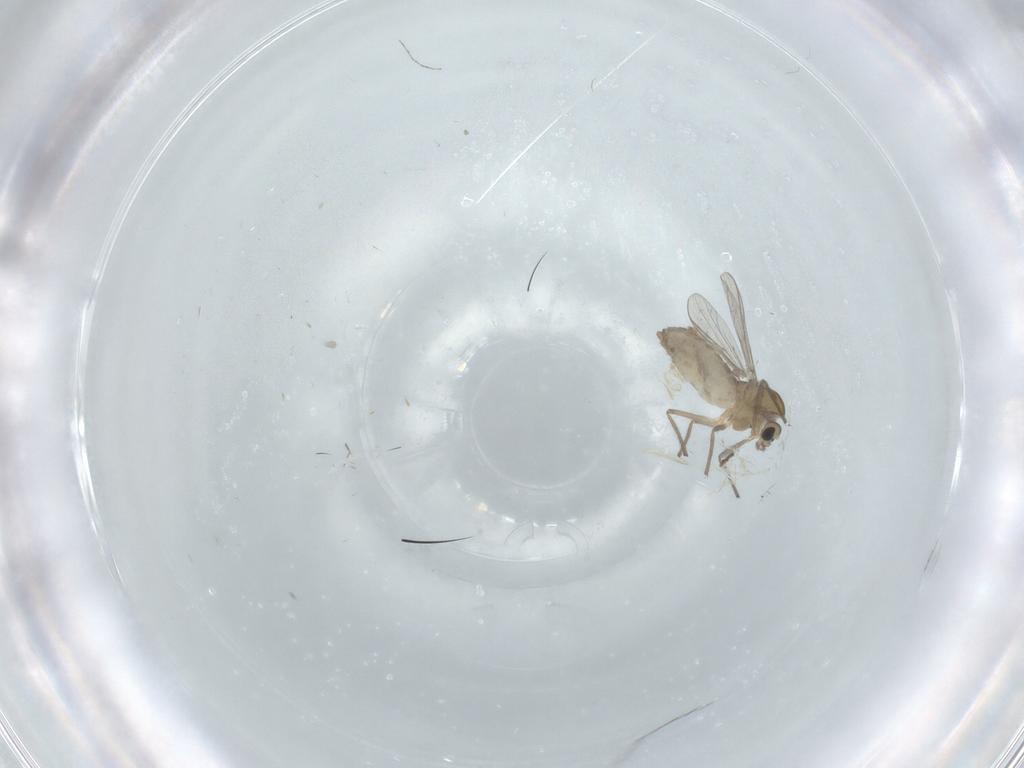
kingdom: Animalia
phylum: Arthropoda
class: Insecta
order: Diptera
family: Chironomidae
